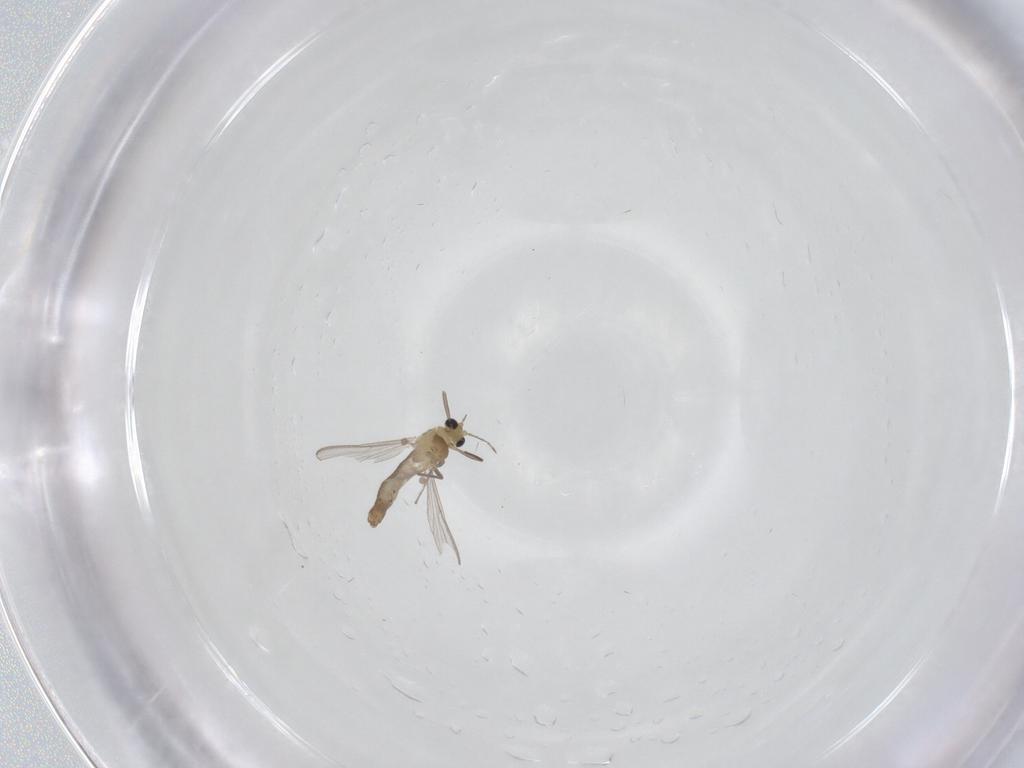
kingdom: Animalia
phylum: Arthropoda
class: Insecta
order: Diptera
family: Chironomidae
